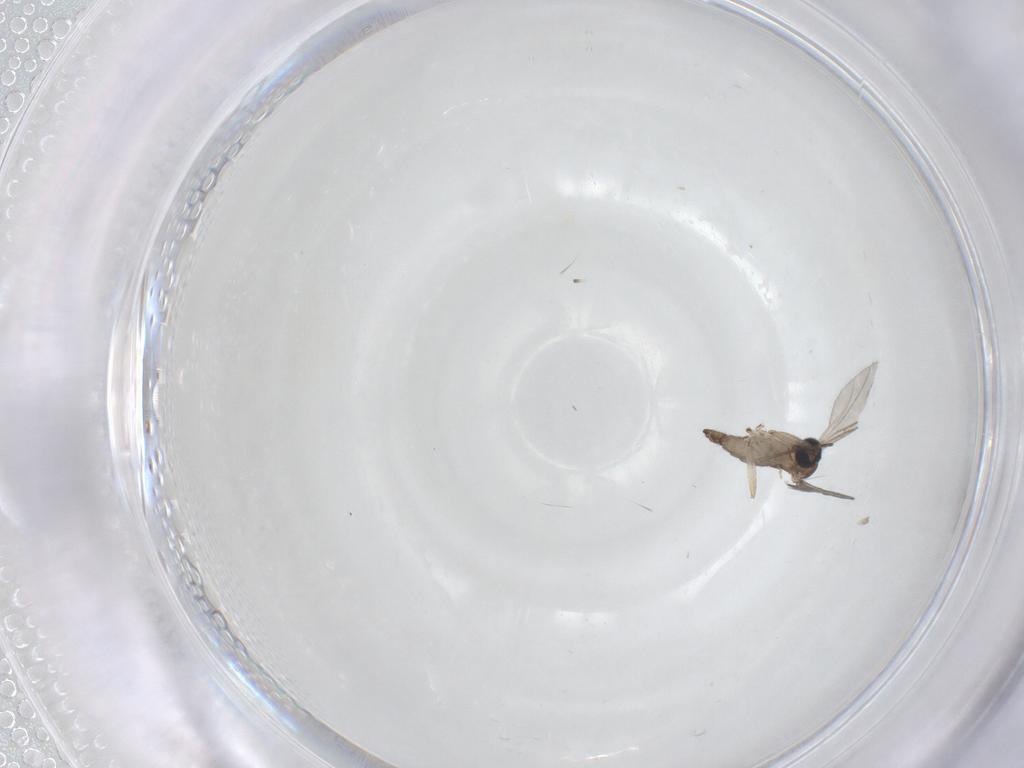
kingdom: Animalia
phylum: Arthropoda
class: Insecta
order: Diptera
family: Sciaridae
